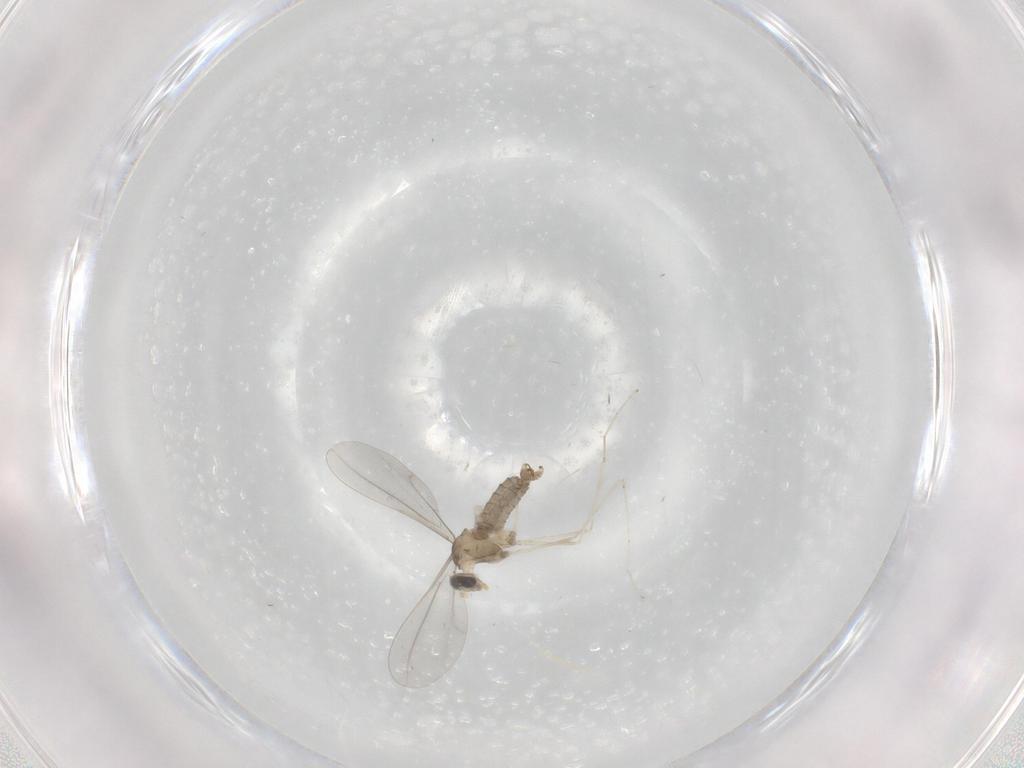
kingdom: Animalia
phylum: Arthropoda
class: Insecta
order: Diptera
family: Cecidomyiidae
